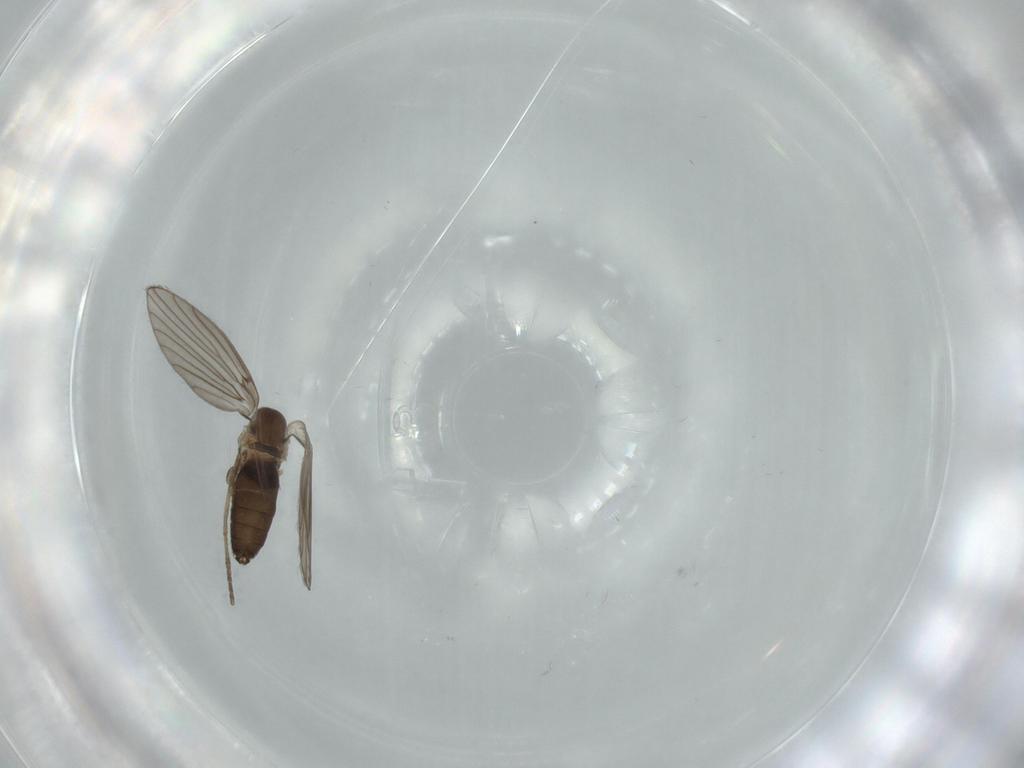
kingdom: Animalia
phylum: Arthropoda
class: Insecta
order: Diptera
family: Psychodidae
